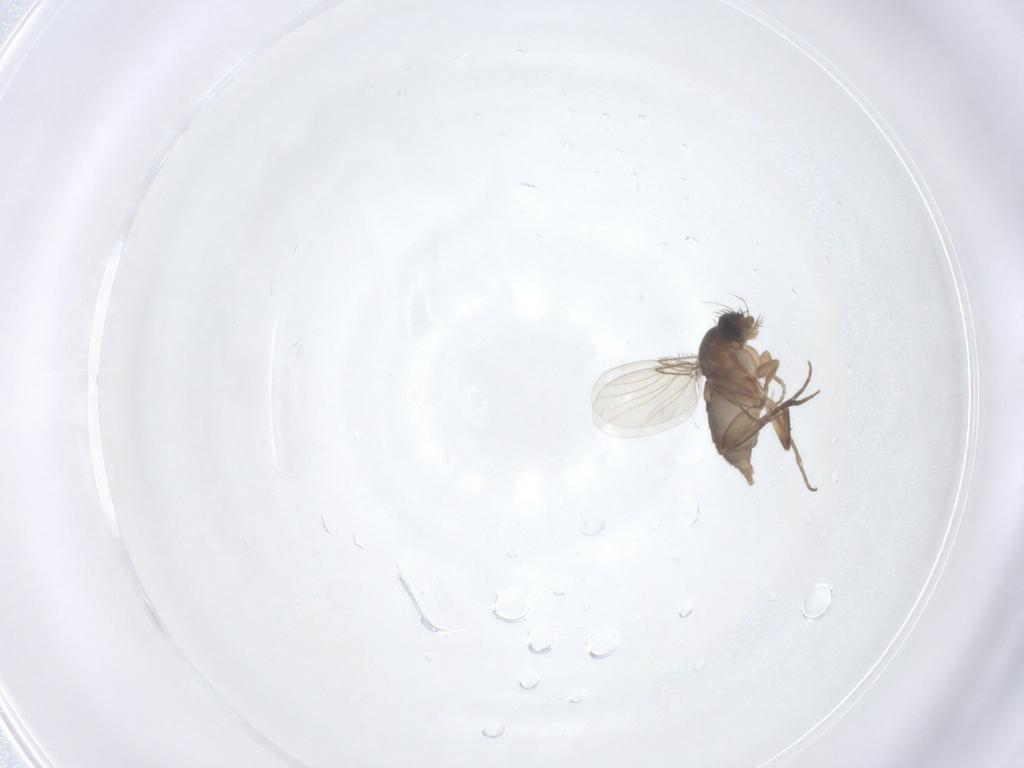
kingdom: Animalia
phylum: Arthropoda
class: Insecta
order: Diptera
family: Phoridae
